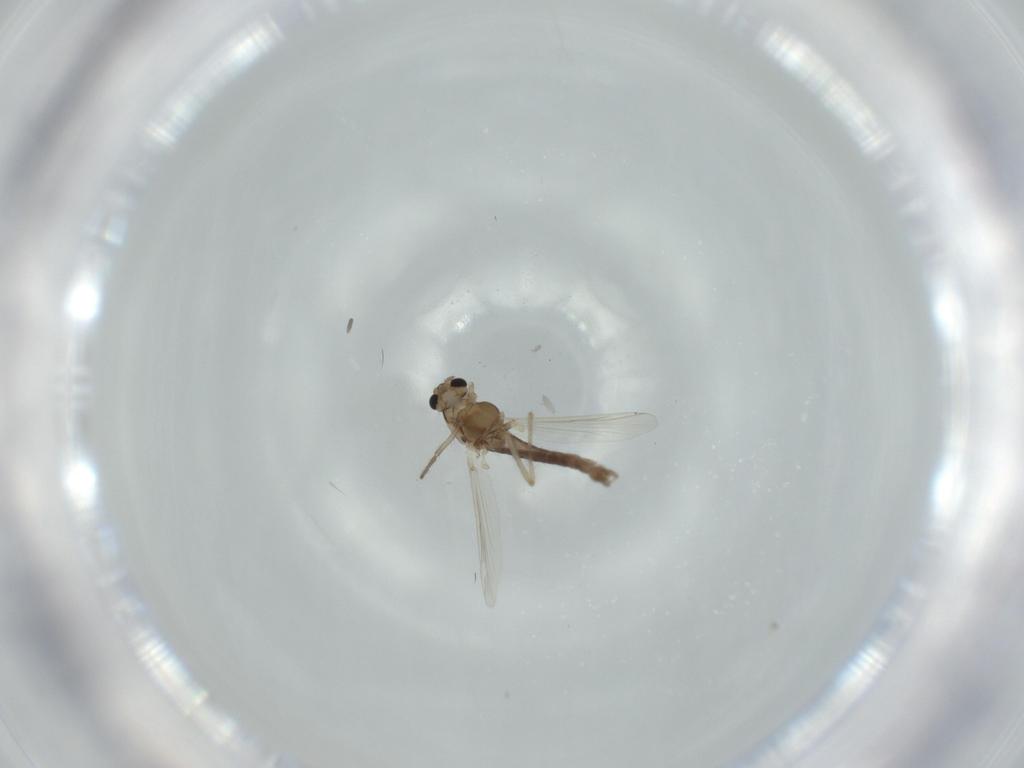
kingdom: Animalia
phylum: Arthropoda
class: Insecta
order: Diptera
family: Chironomidae
